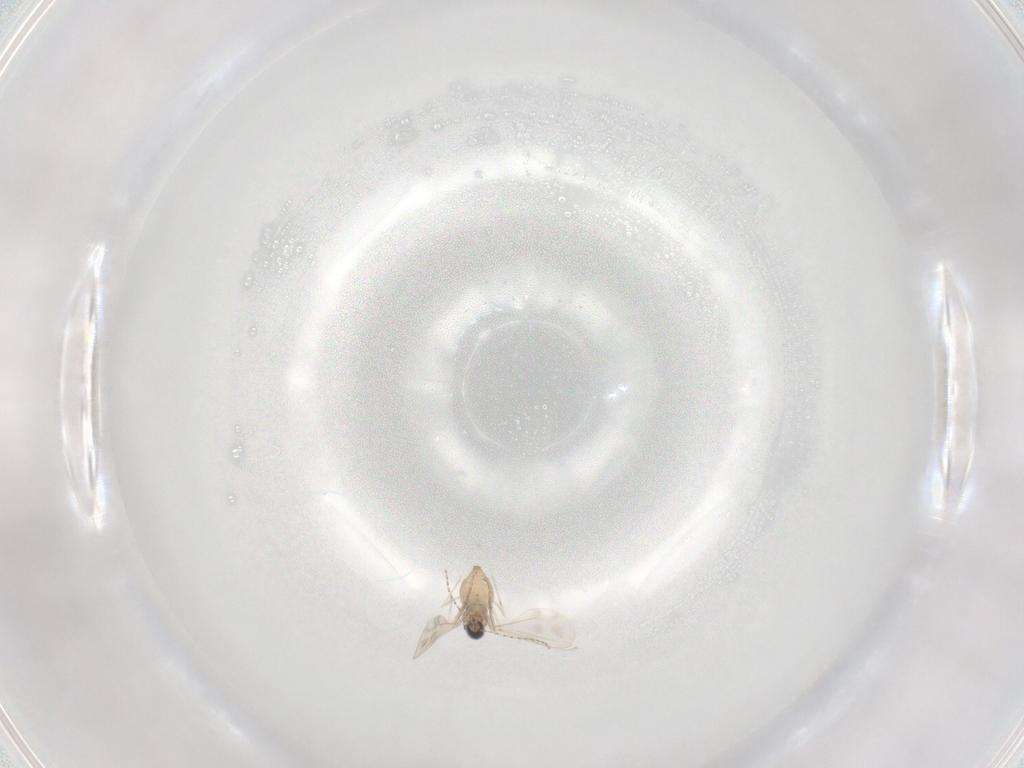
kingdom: Animalia
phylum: Arthropoda
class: Insecta
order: Diptera
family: Cecidomyiidae
